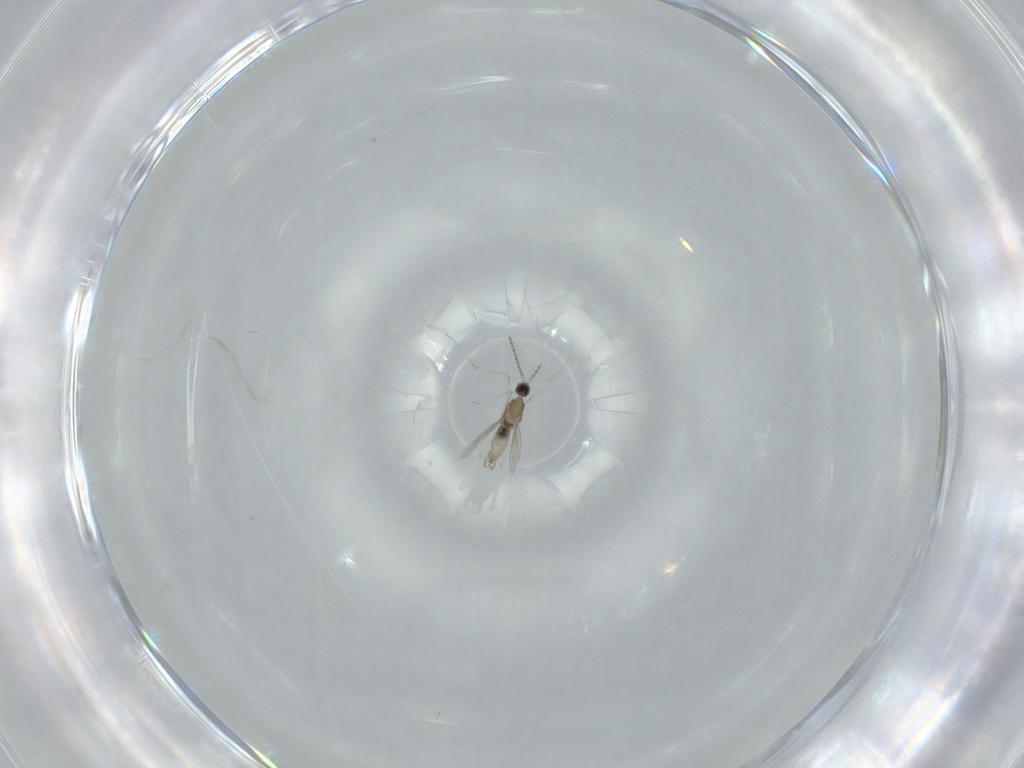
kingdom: Animalia
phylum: Arthropoda
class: Insecta
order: Diptera
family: Cecidomyiidae
